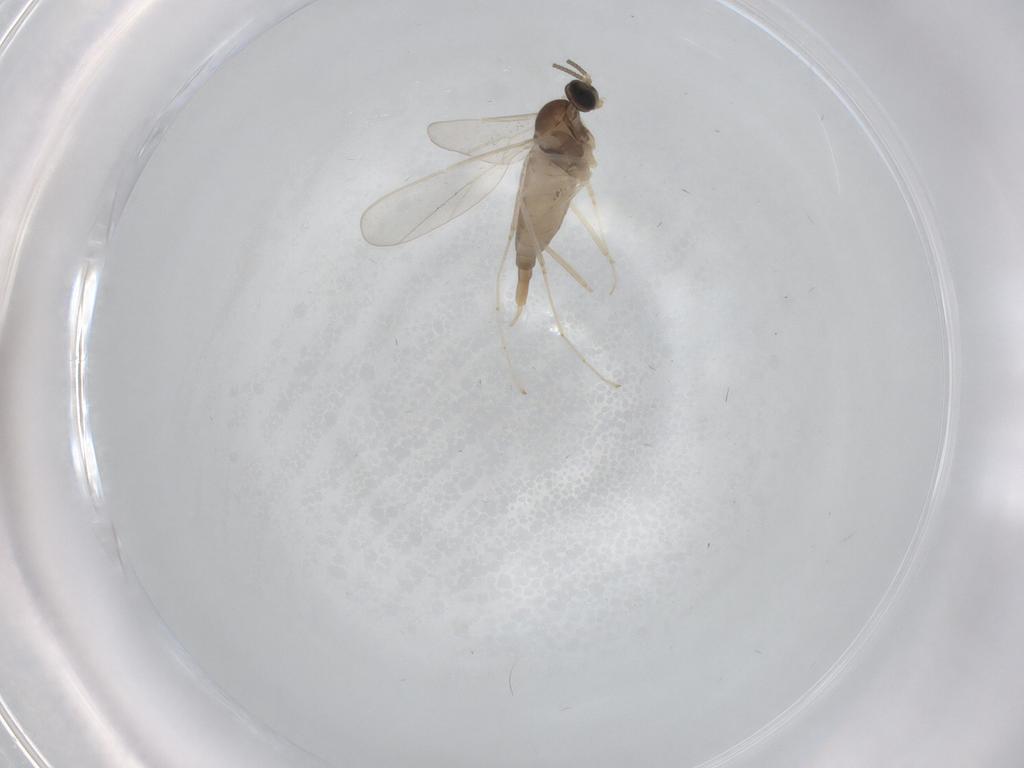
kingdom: Animalia
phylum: Arthropoda
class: Insecta
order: Diptera
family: Cecidomyiidae
